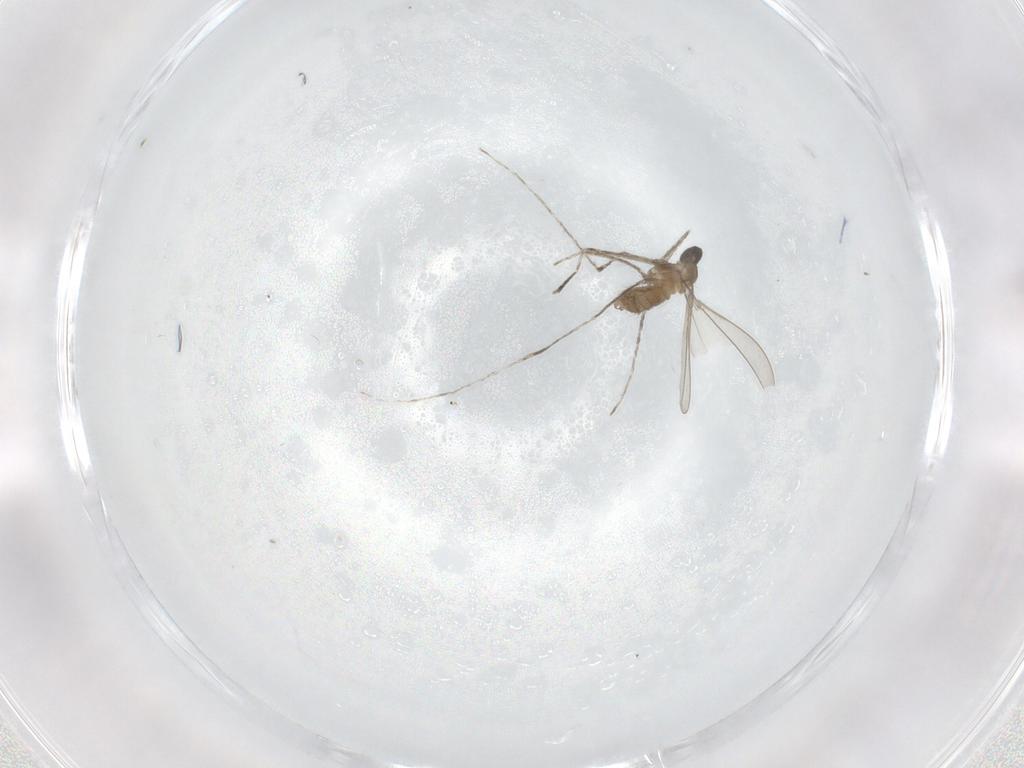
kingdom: Animalia
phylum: Arthropoda
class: Insecta
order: Diptera
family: Cecidomyiidae
